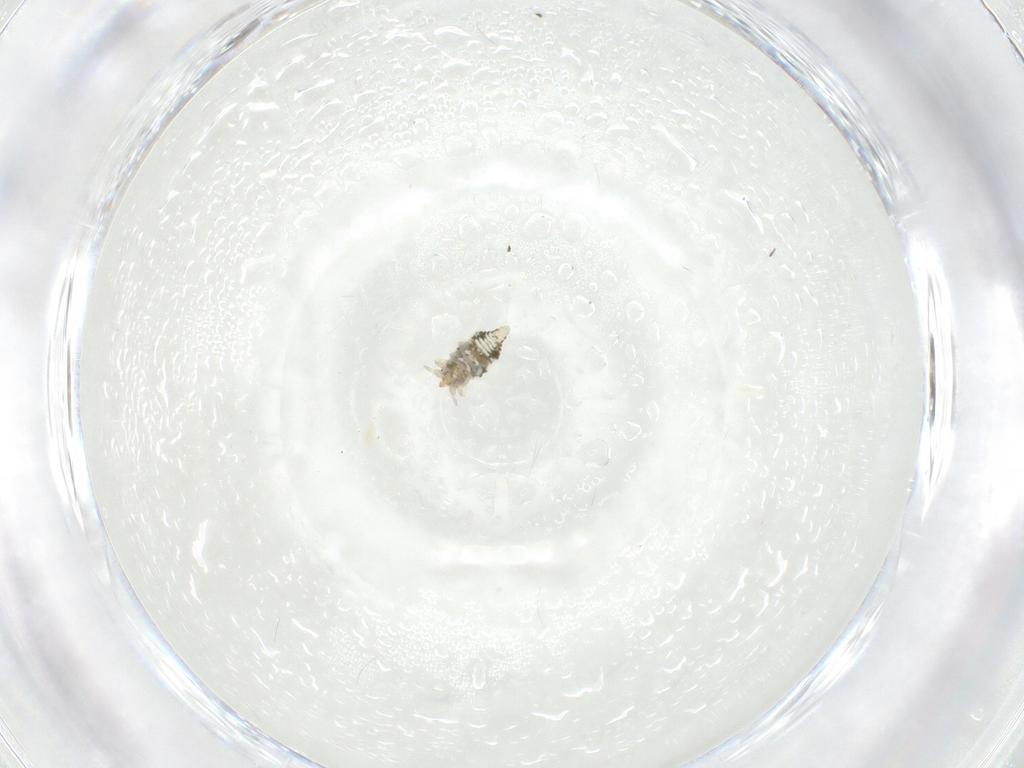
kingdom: Animalia
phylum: Arthropoda
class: Insecta
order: Neuroptera
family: Coniopterygidae
